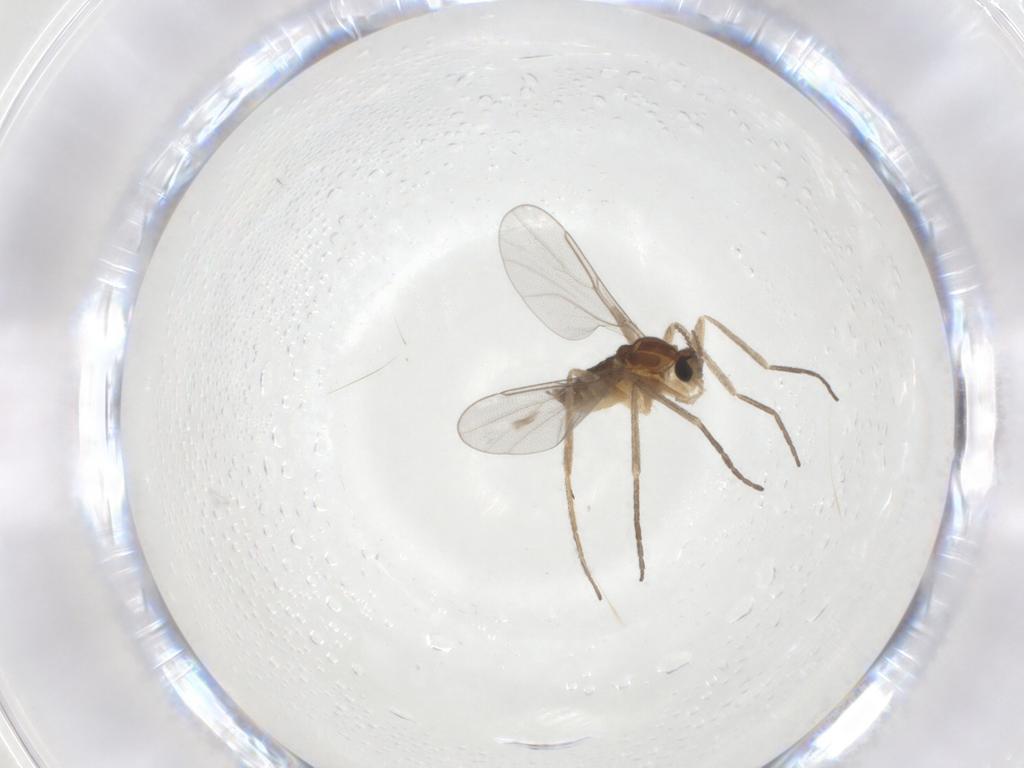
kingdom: Animalia
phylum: Arthropoda
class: Insecta
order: Diptera
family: Cecidomyiidae
